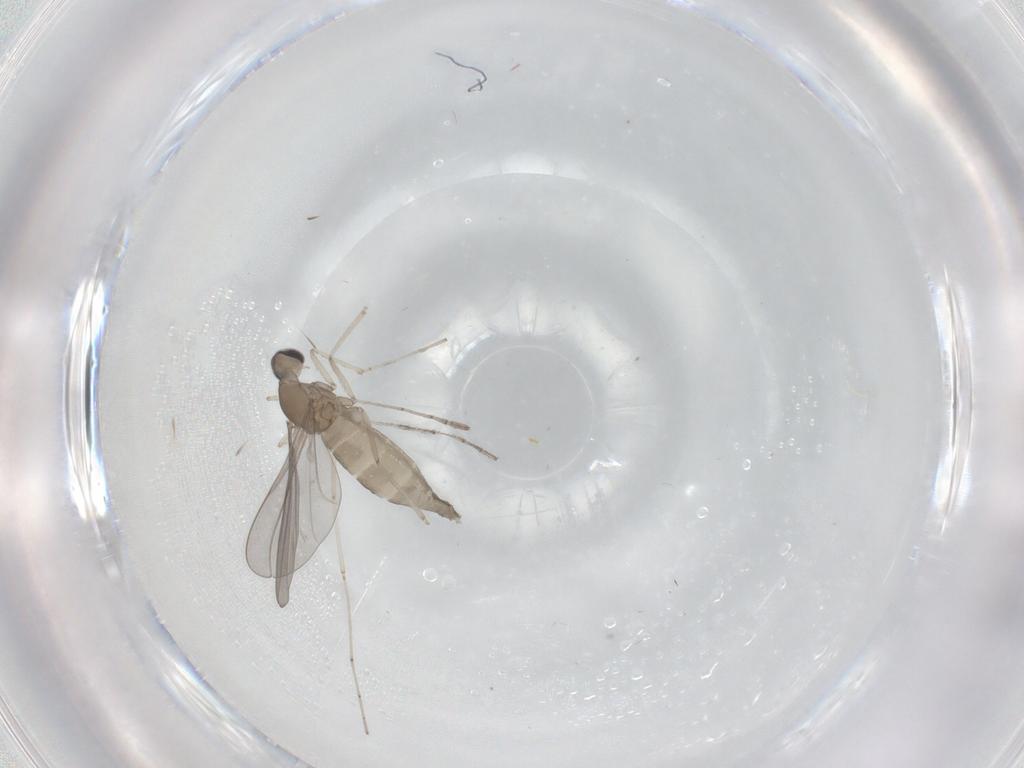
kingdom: Animalia
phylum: Arthropoda
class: Insecta
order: Diptera
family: Cecidomyiidae
